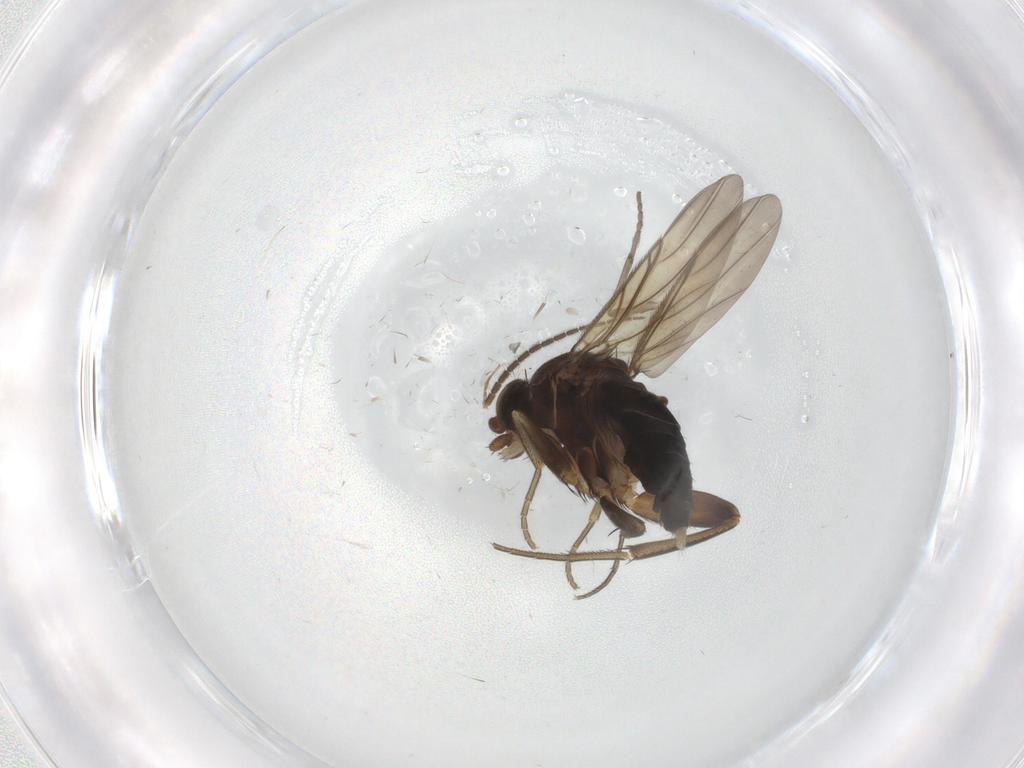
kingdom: Animalia
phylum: Arthropoda
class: Insecta
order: Diptera
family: Phoridae
